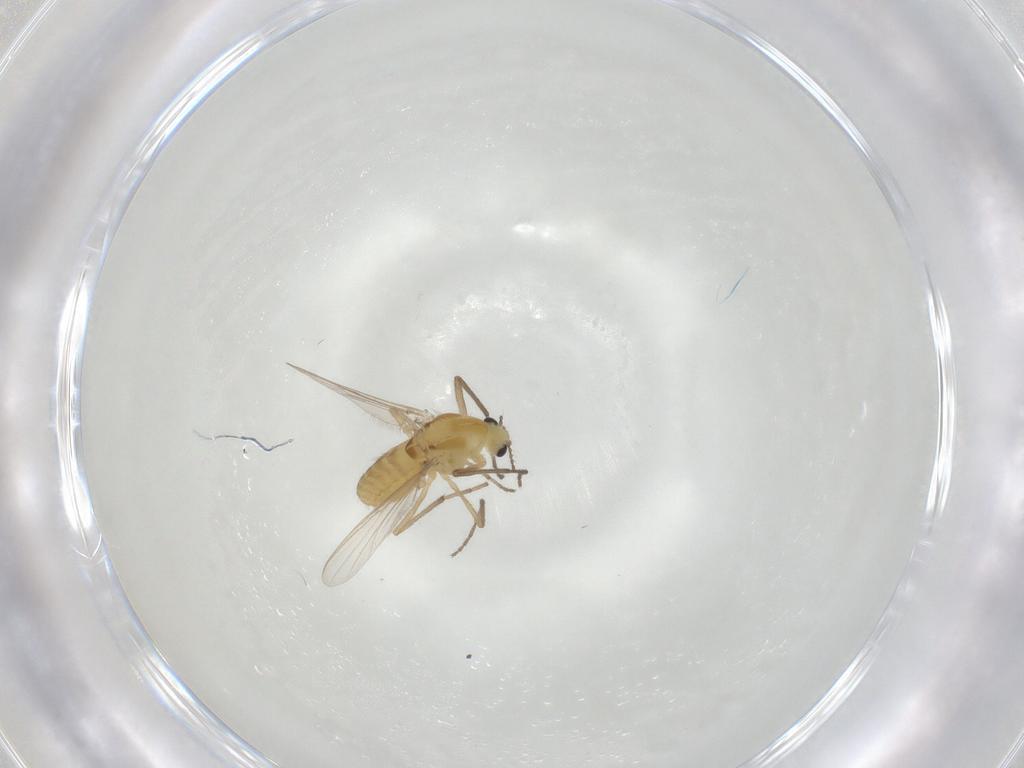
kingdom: Animalia
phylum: Arthropoda
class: Insecta
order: Diptera
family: Chironomidae
